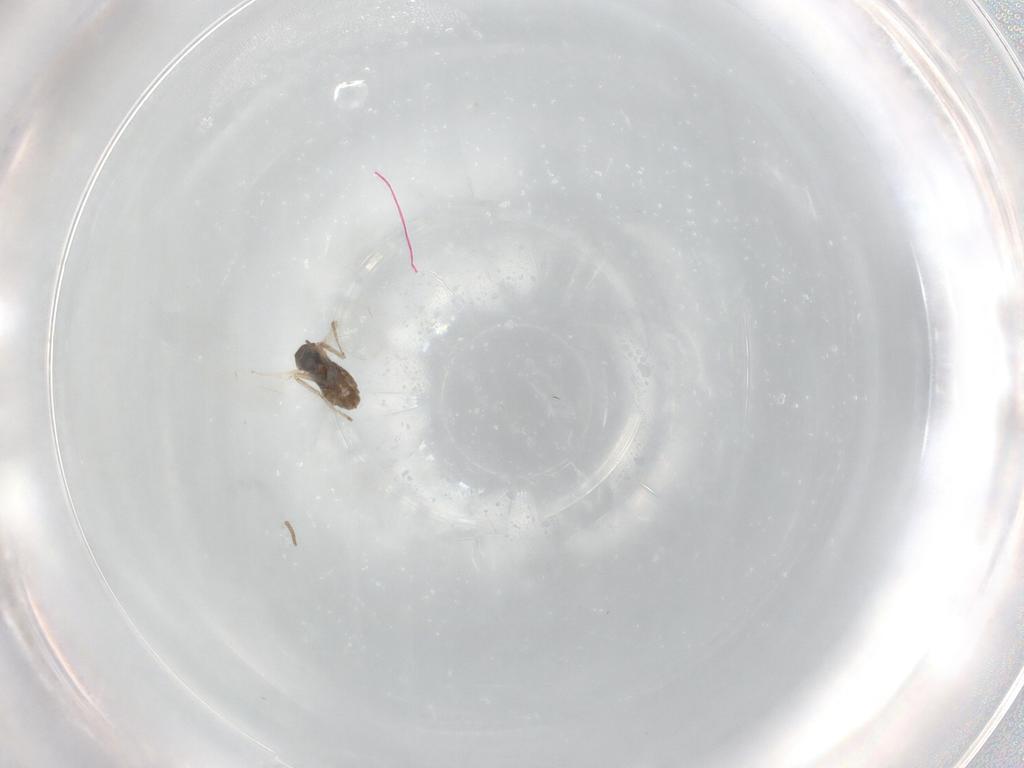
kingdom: Animalia
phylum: Arthropoda
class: Insecta
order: Diptera
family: Cecidomyiidae
